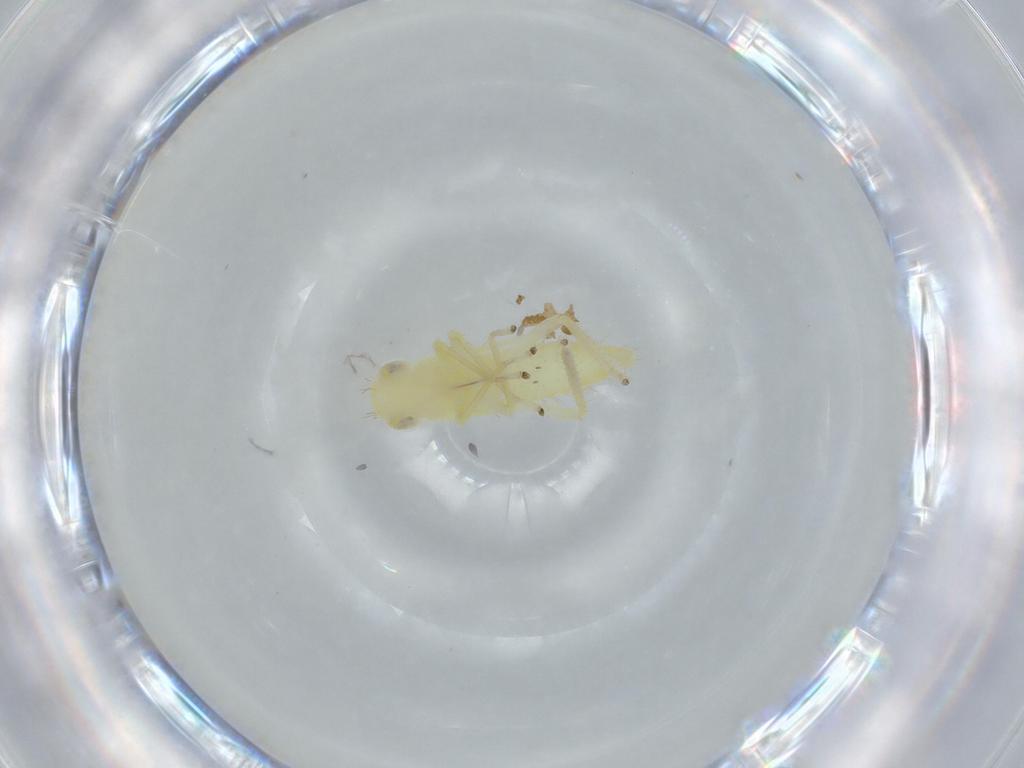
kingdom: Animalia
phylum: Arthropoda
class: Insecta
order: Hemiptera
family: Cicadellidae
